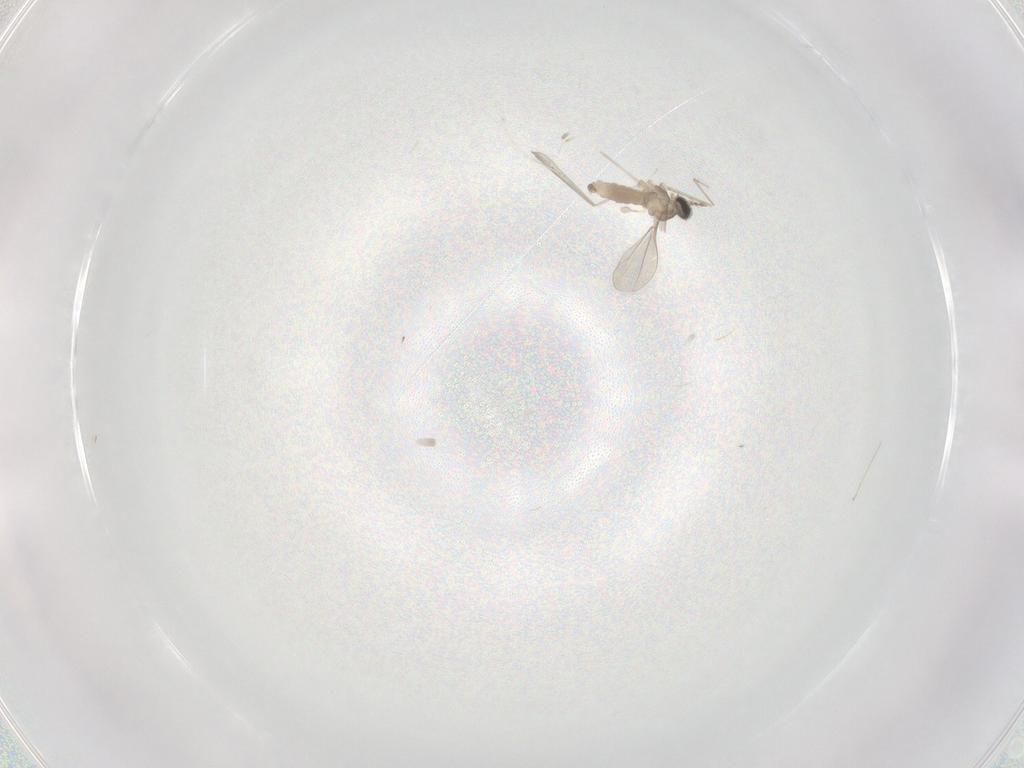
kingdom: Animalia
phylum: Arthropoda
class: Insecta
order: Diptera
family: Cecidomyiidae
